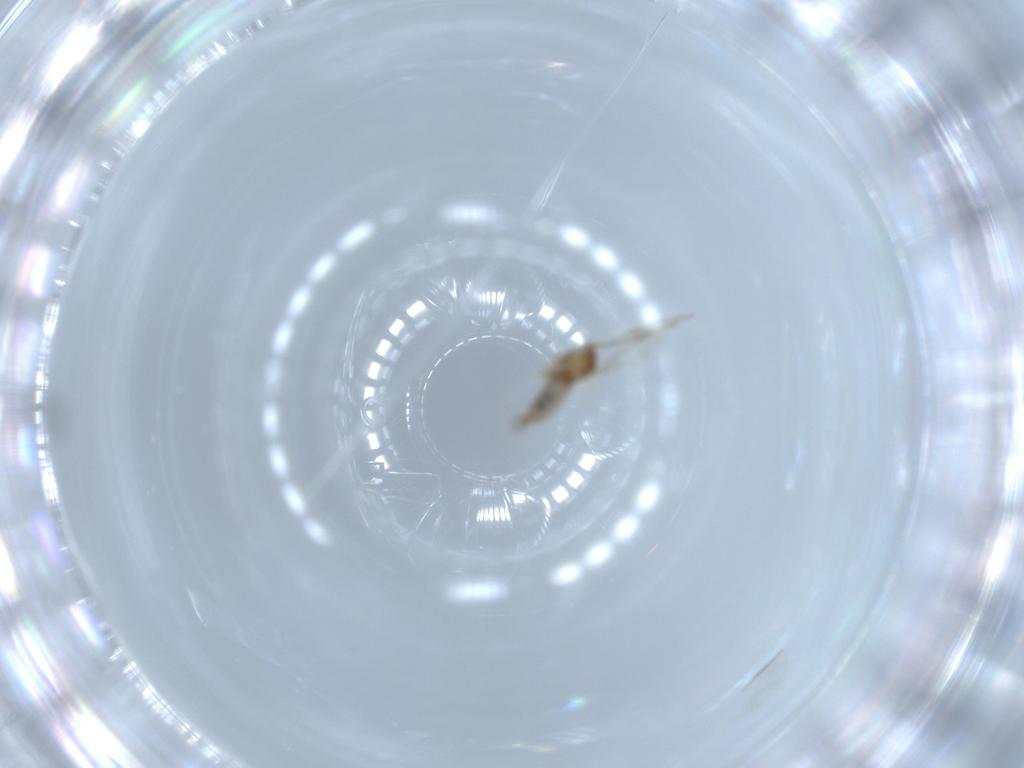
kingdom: Animalia
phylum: Arthropoda
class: Insecta
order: Diptera
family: Cecidomyiidae
